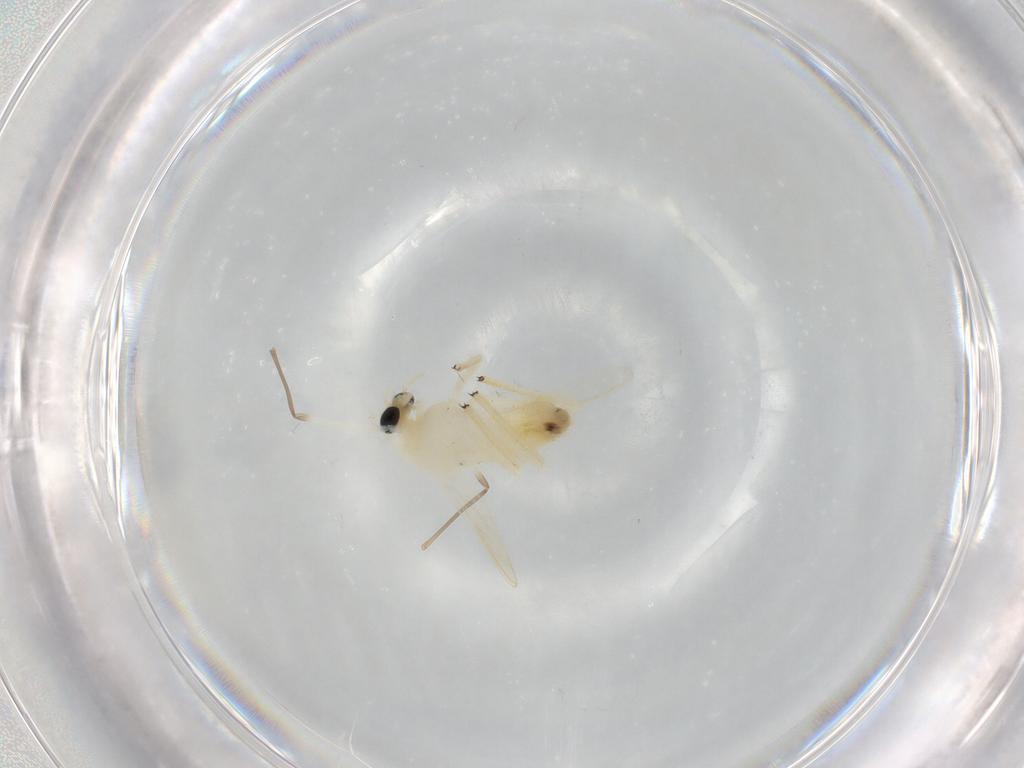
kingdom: Animalia
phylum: Arthropoda
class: Insecta
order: Diptera
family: Chironomidae
